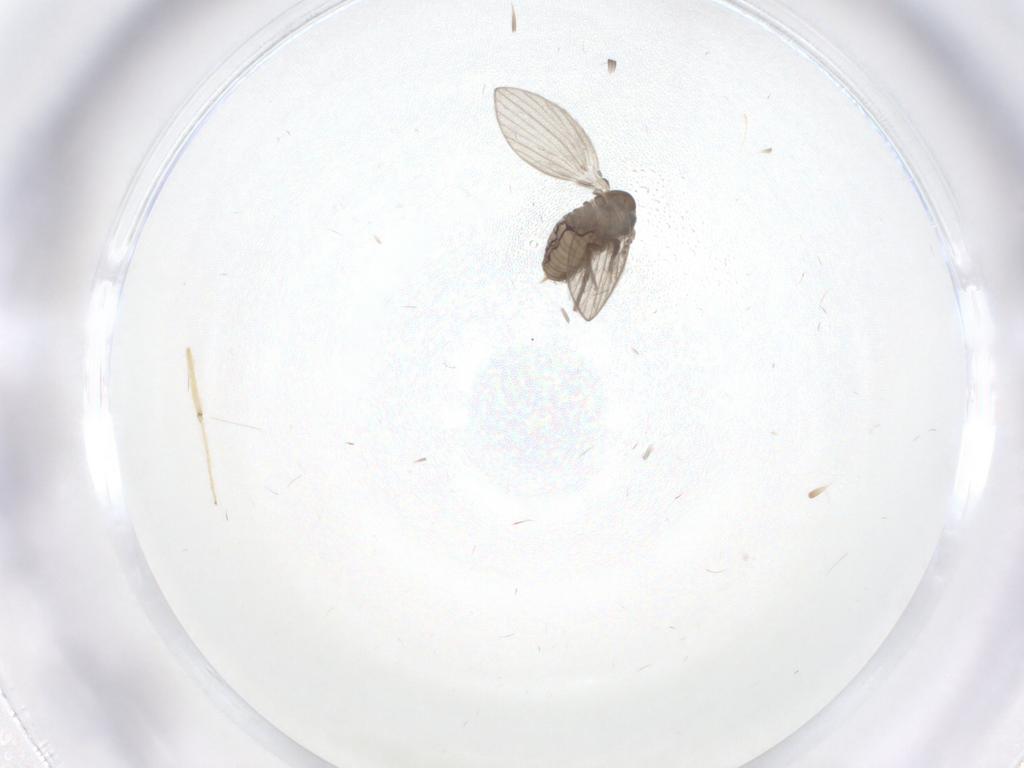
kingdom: Animalia
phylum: Arthropoda
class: Insecta
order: Diptera
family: Psychodidae
